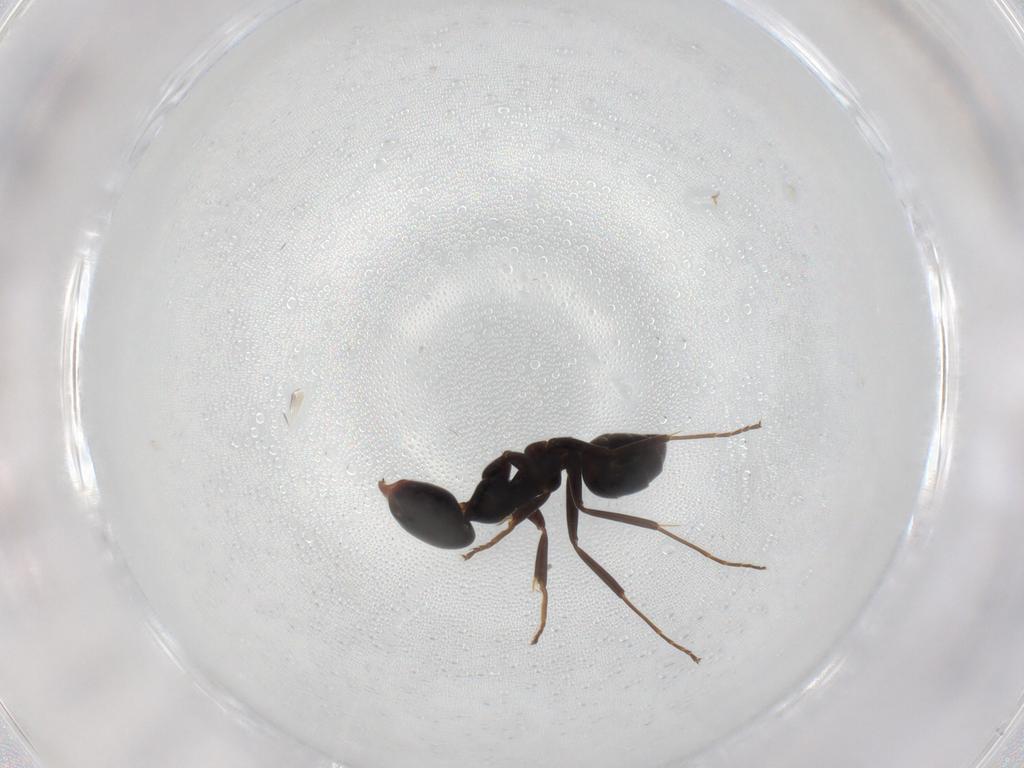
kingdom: Animalia
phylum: Arthropoda
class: Insecta
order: Hymenoptera
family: Formicidae
